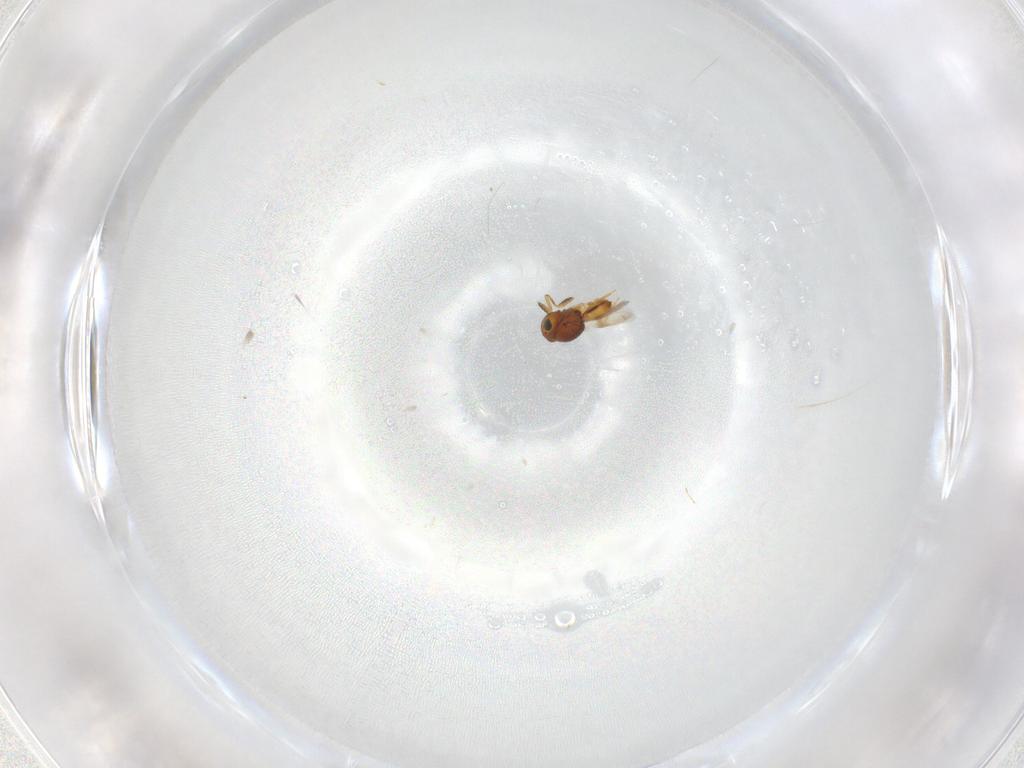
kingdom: Animalia
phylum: Arthropoda
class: Insecta
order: Hymenoptera
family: Scelionidae
